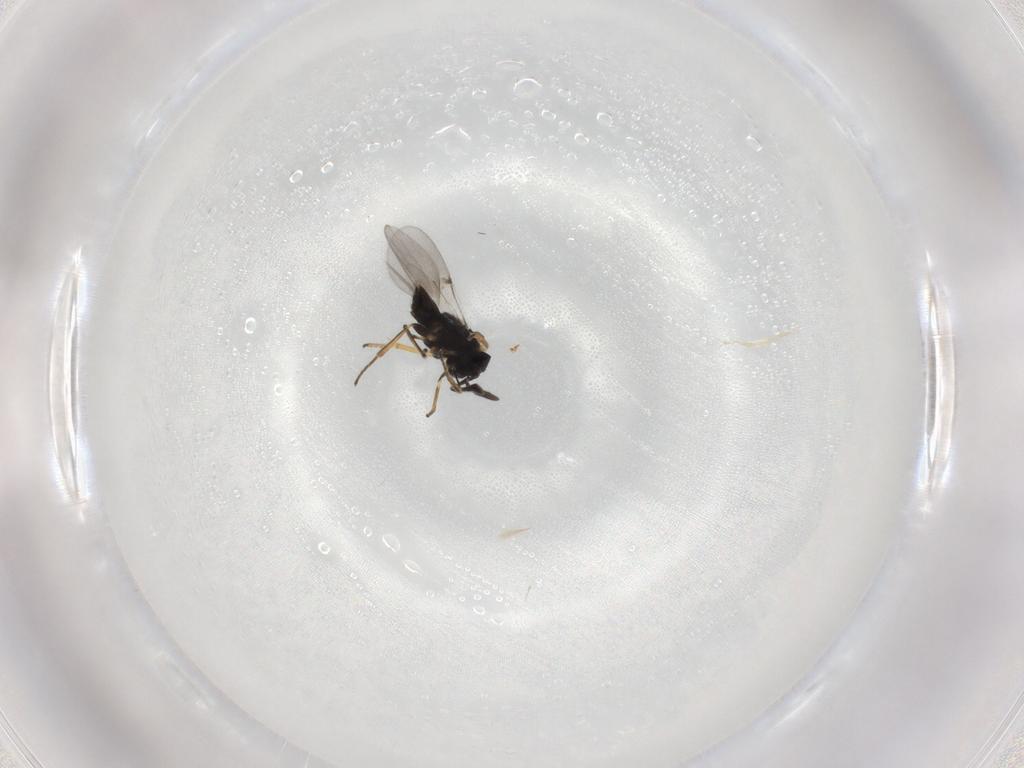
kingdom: Animalia
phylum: Arthropoda
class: Insecta
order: Hymenoptera
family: Encyrtidae
